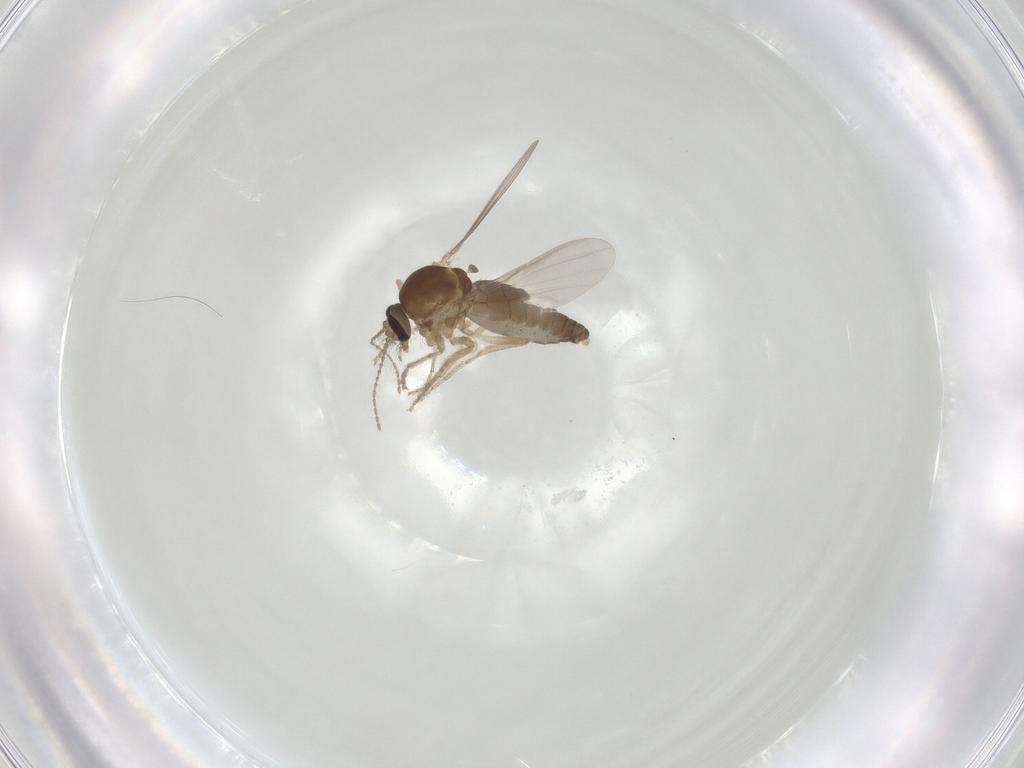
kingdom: Animalia
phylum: Arthropoda
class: Insecta
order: Diptera
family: Chironomidae
